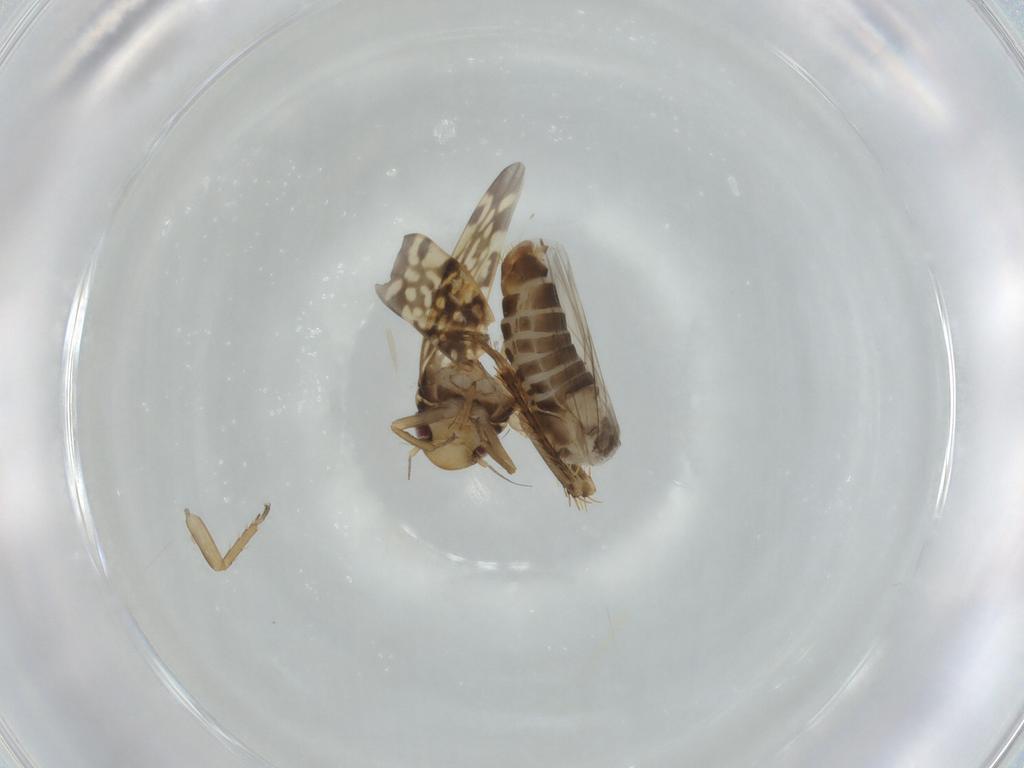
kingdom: Animalia
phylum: Arthropoda
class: Insecta
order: Hemiptera
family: Cicadellidae
